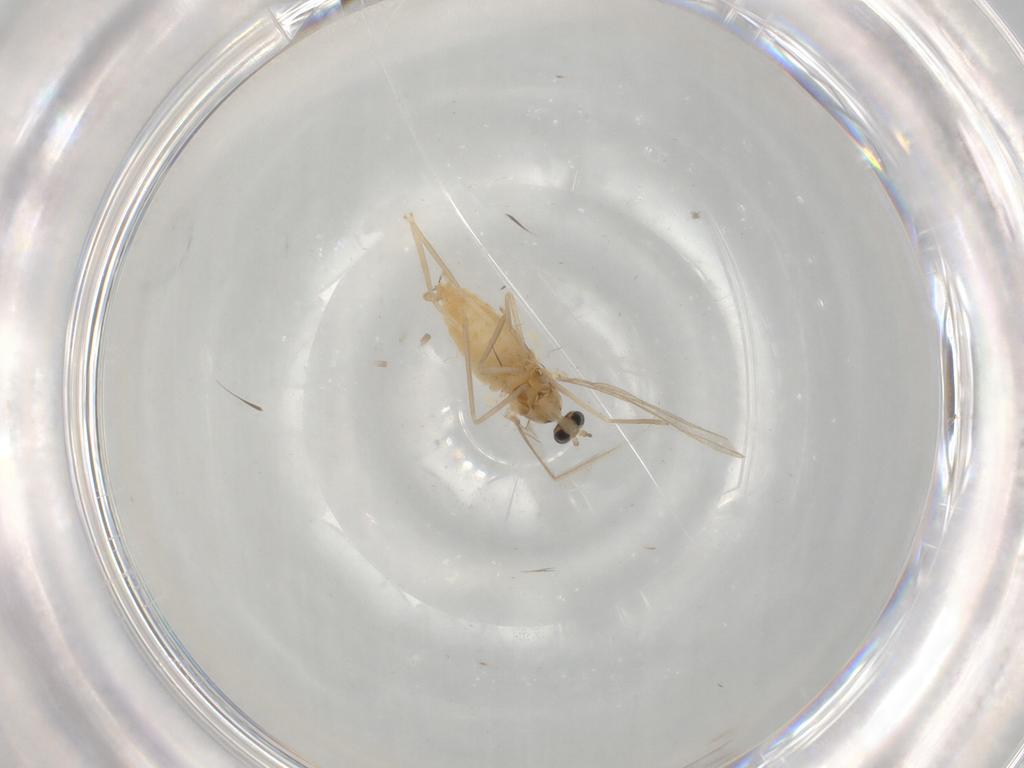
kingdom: Animalia
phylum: Arthropoda
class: Insecta
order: Diptera
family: Cecidomyiidae
